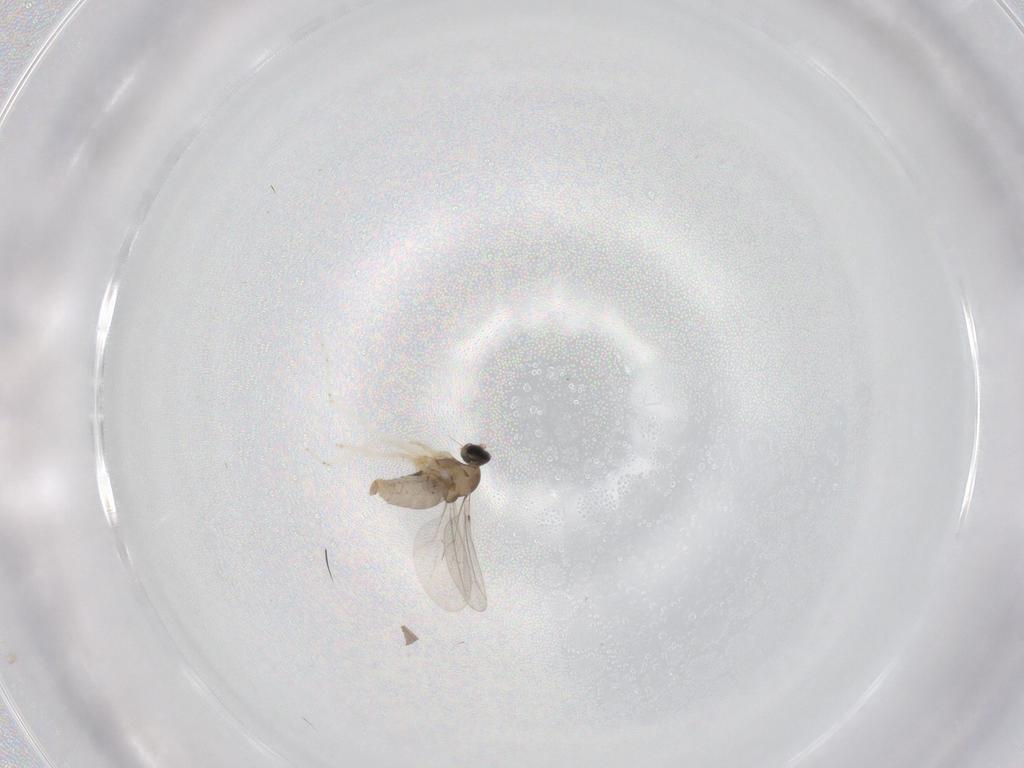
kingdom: Animalia
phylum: Arthropoda
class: Insecta
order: Diptera
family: Cecidomyiidae
